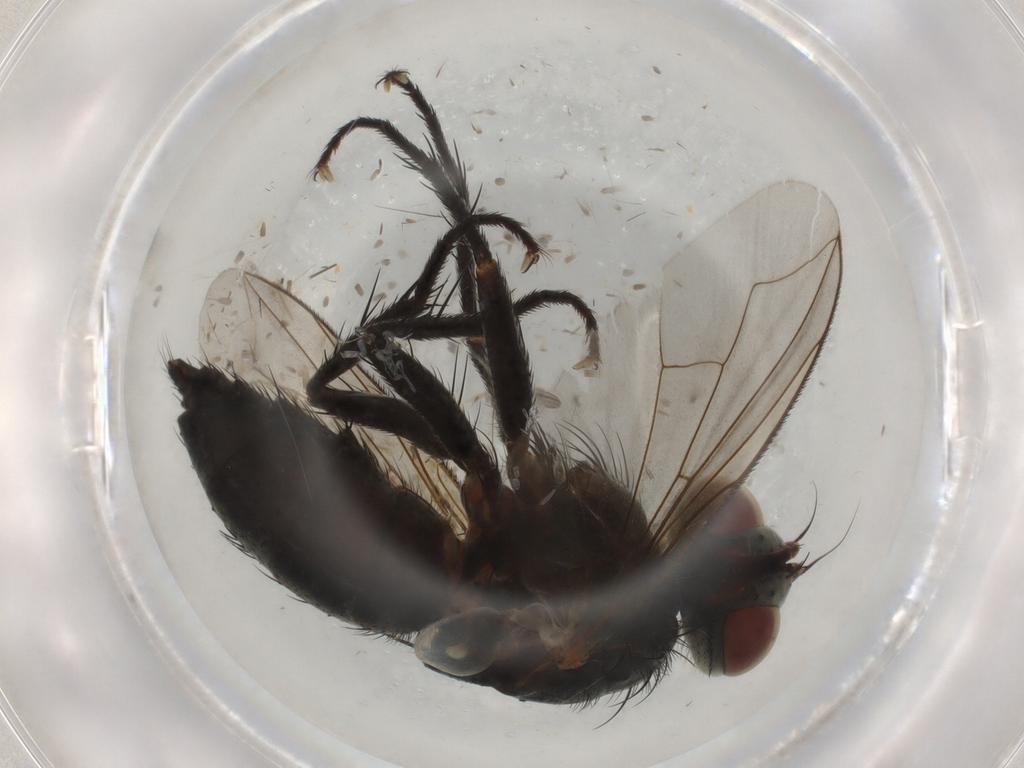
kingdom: Animalia
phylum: Arthropoda
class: Insecta
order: Diptera
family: Tachinidae
